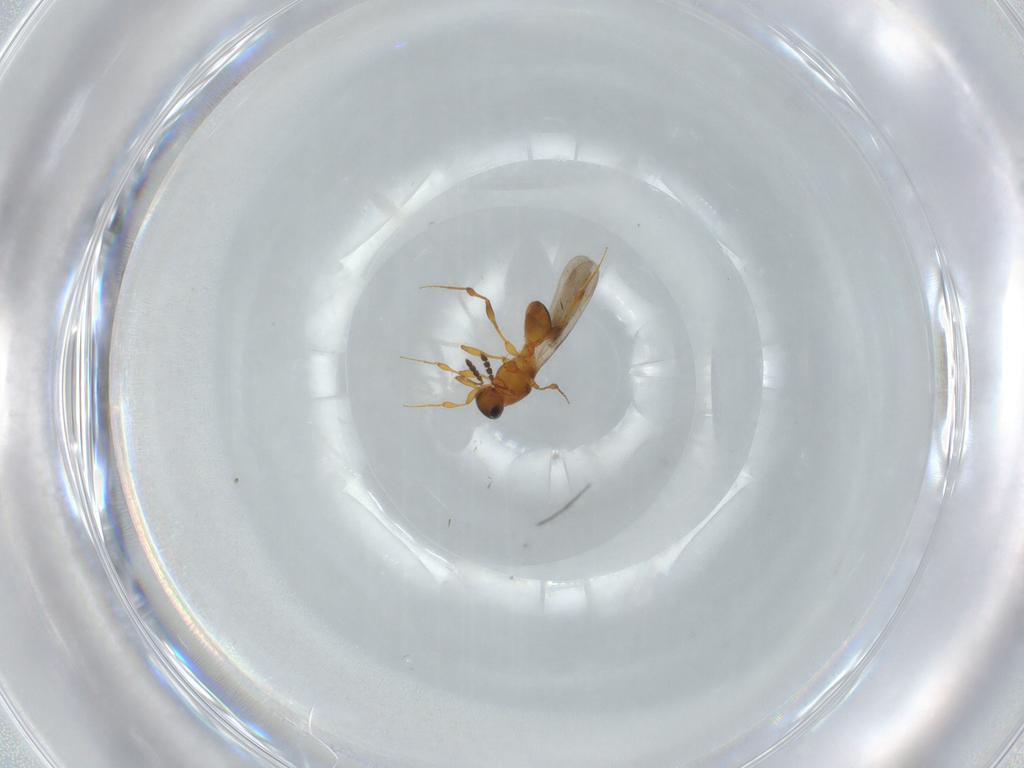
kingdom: Animalia
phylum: Arthropoda
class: Insecta
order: Hymenoptera
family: Platygastridae
